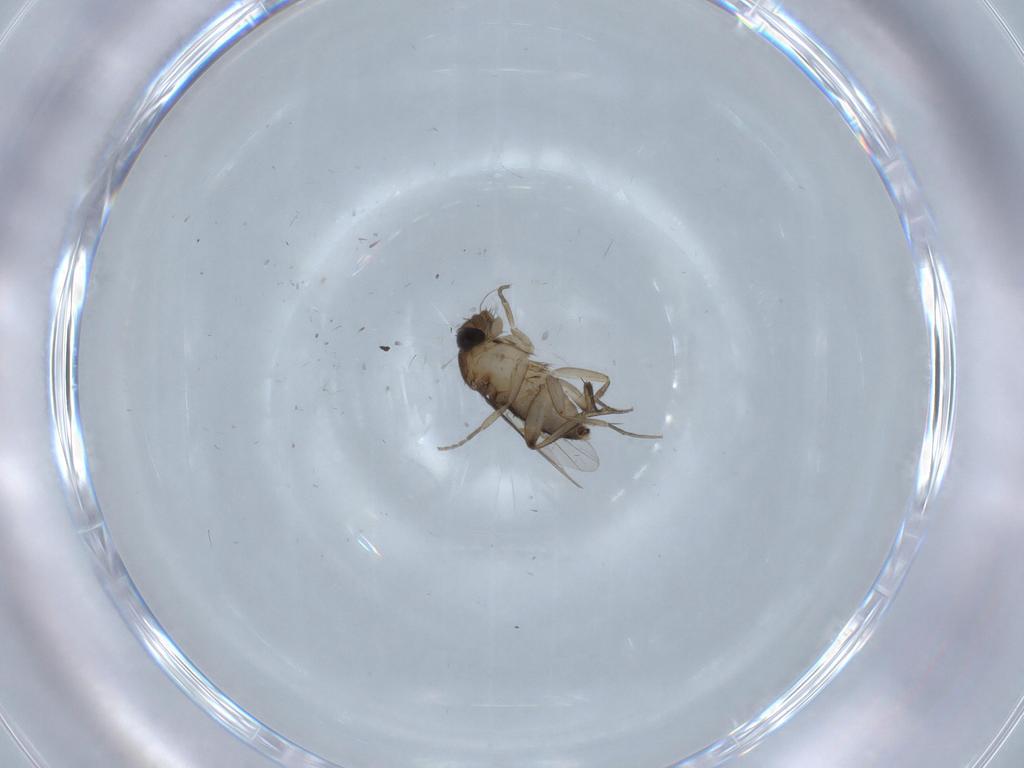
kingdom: Animalia
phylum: Arthropoda
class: Insecta
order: Diptera
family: Phoridae
